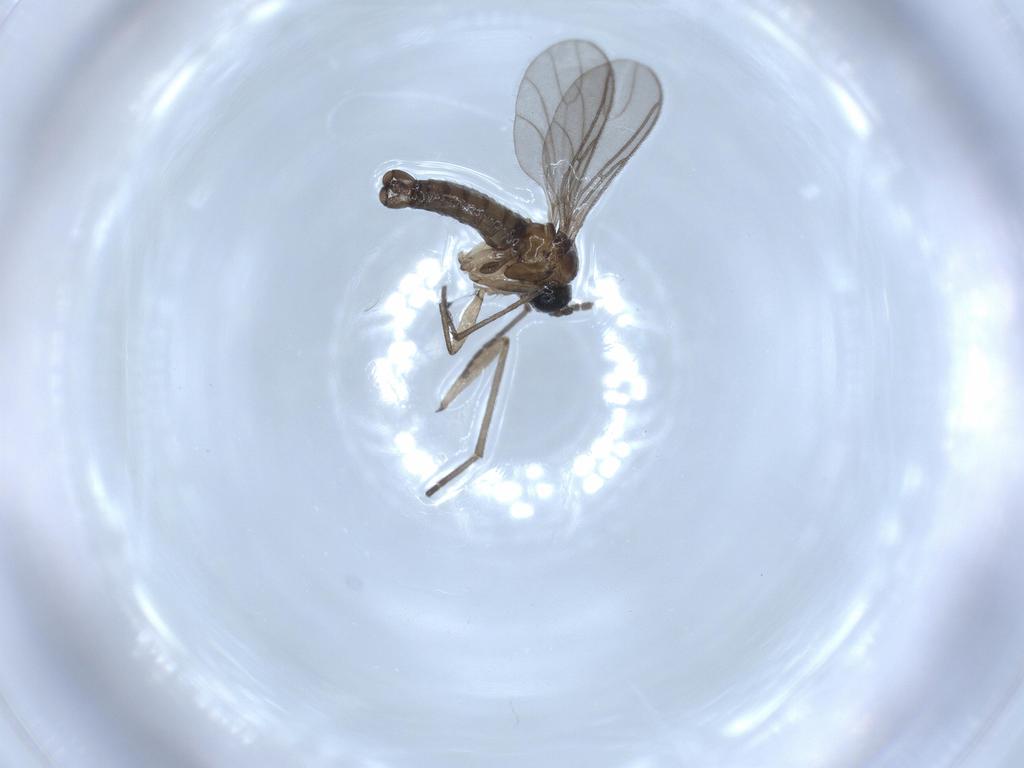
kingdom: Animalia
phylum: Arthropoda
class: Insecta
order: Diptera
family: Sciaridae
